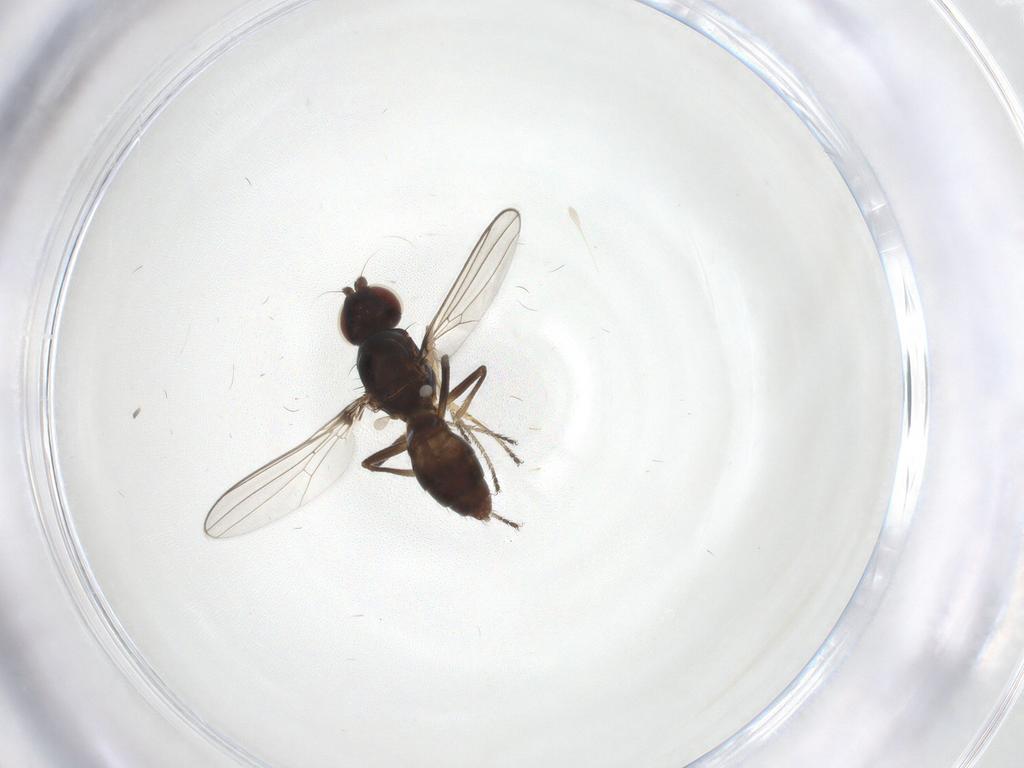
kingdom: Animalia
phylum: Arthropoda
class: Insecta
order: Diptera
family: Sepsidae
